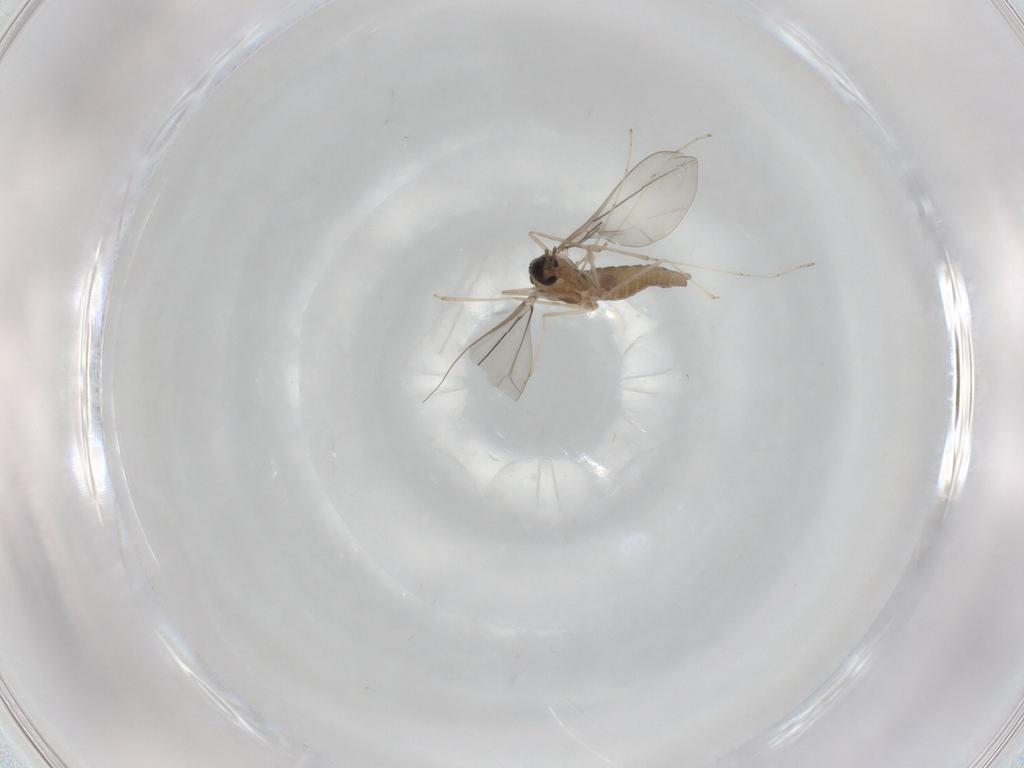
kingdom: Animalia
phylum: Arthropoda
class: Insecta
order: Diptera
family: Cecidomyiidae
